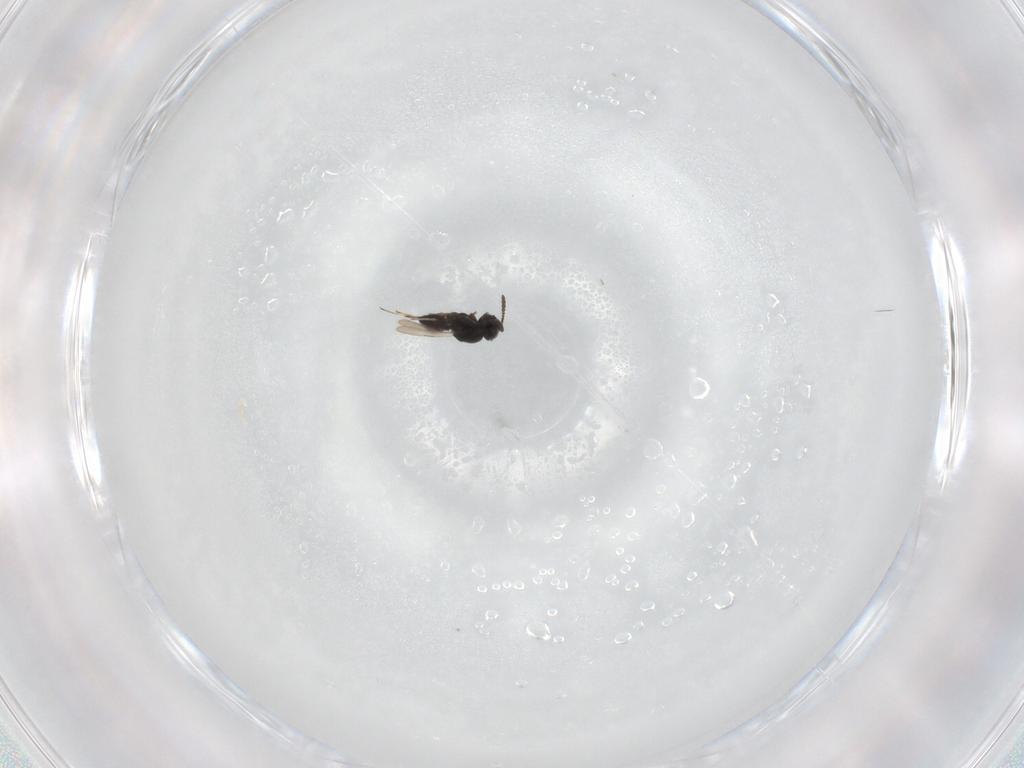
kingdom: Animalia
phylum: Arthropoda
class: Insecta
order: Hymenoptera
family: Scelionidae
